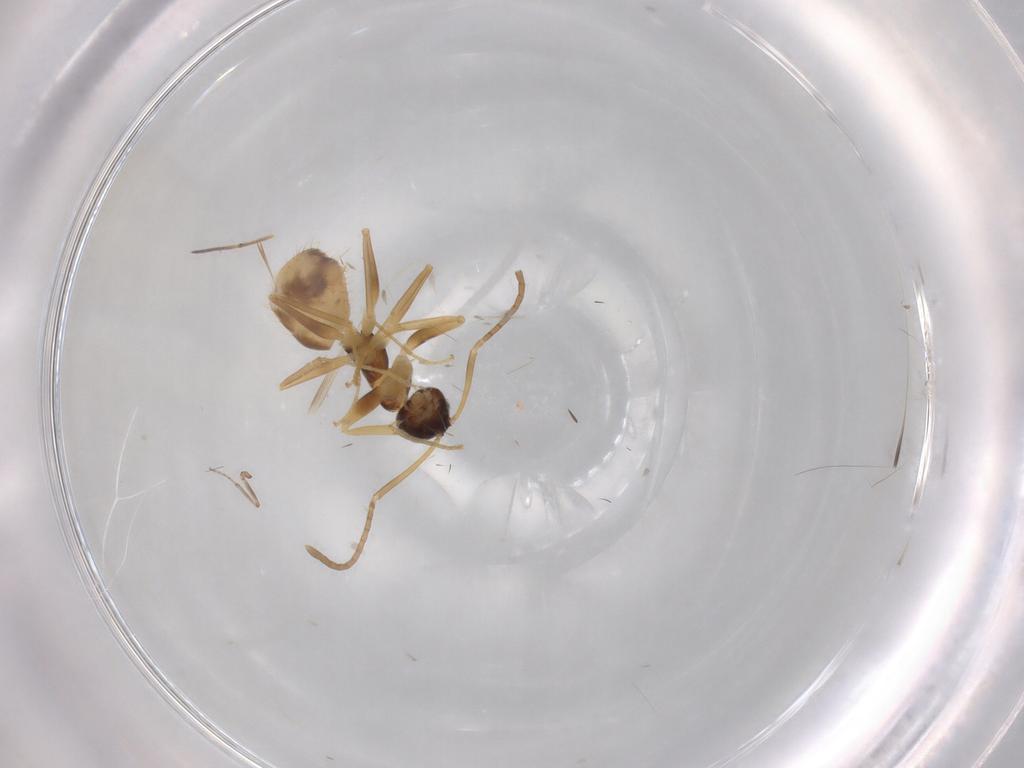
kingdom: Animalia
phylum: Arthropoda
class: Insecta
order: Hymenoptera
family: Formicidae
